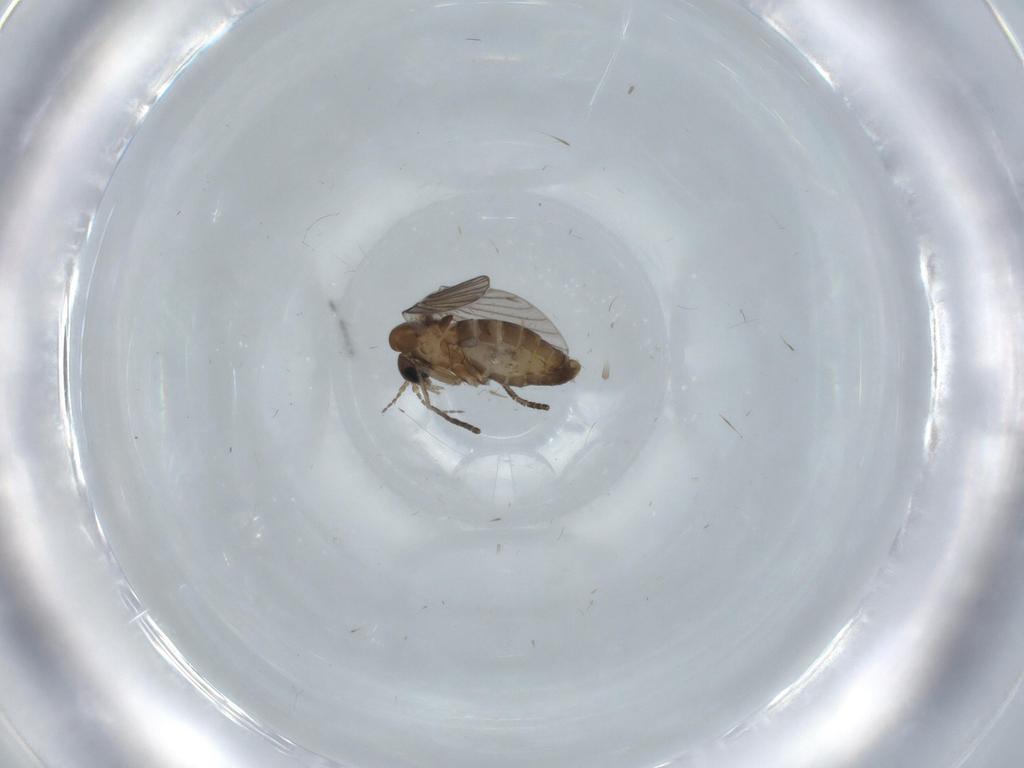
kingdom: Animalia
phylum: Arthropoda
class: Insecta
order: Diptera
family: Psychodidae
